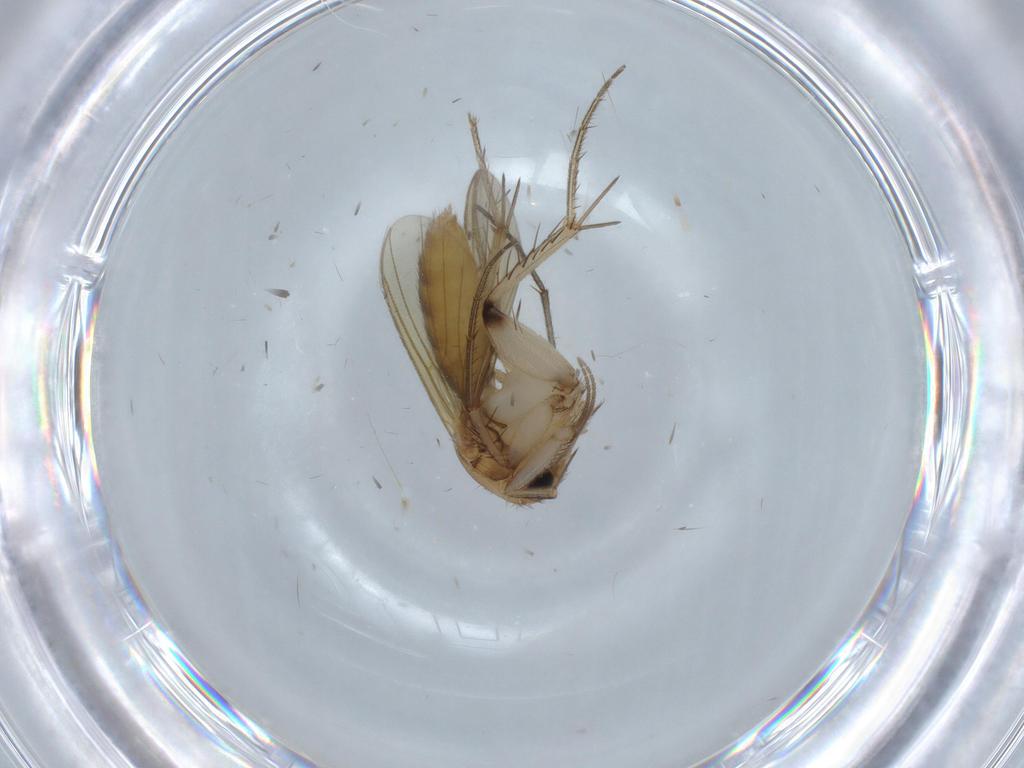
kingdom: Animalia
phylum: Arthropoda
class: Insecta
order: Diptera
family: Mycetophilidae
